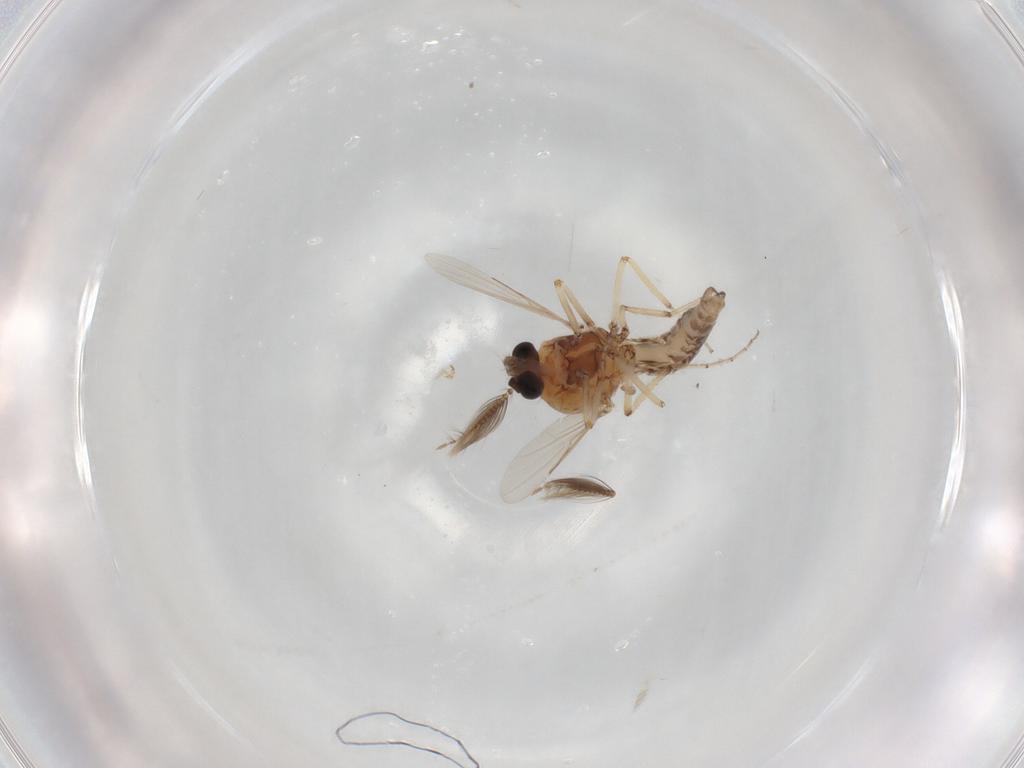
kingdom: Animalia
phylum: Arthropoda
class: Insecta
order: Diptera
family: Ceratopogonidae
